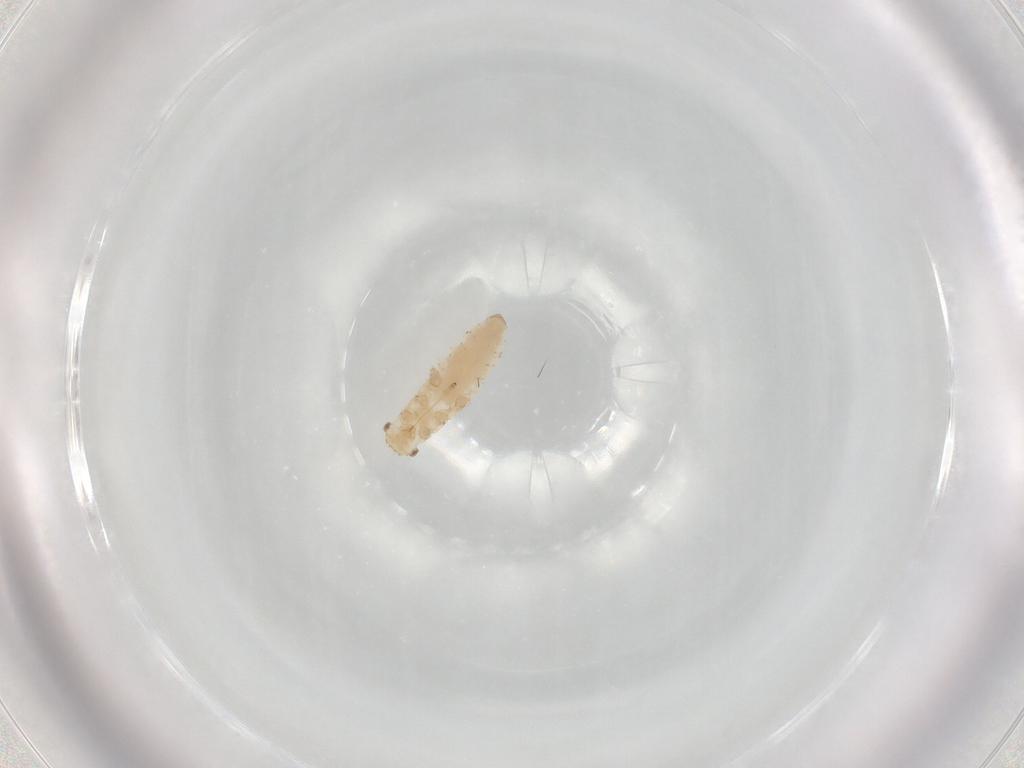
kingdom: Animalia
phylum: Arthropoda
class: Insecta
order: Hemiptera
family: Aphididae
